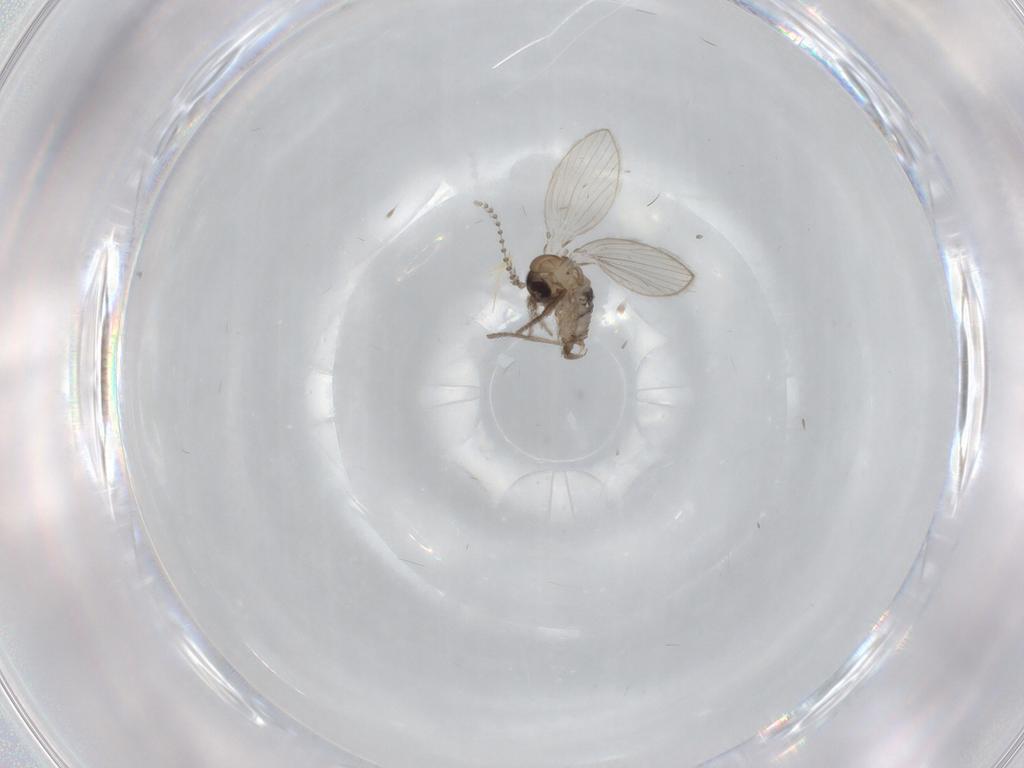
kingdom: Animalia
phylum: Arthropoda
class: Insecta
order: Diptera
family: Psychodidae
